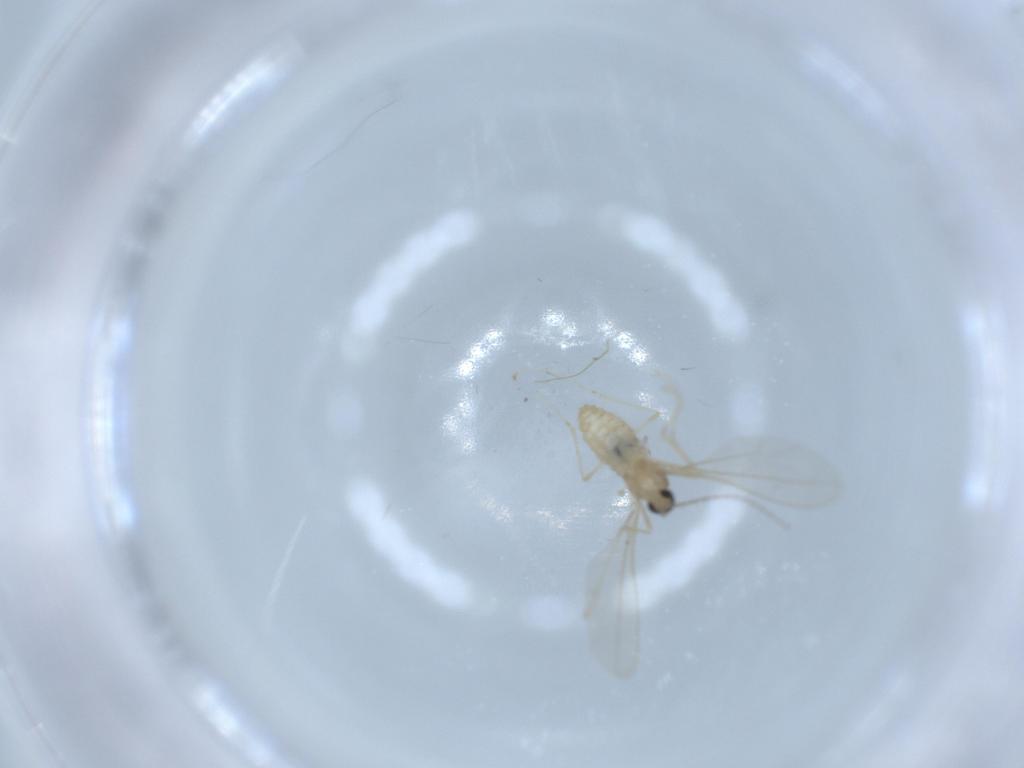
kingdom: Animalia
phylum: Arthropoda
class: Insecta
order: Diptera
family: Cecidomyiidae
